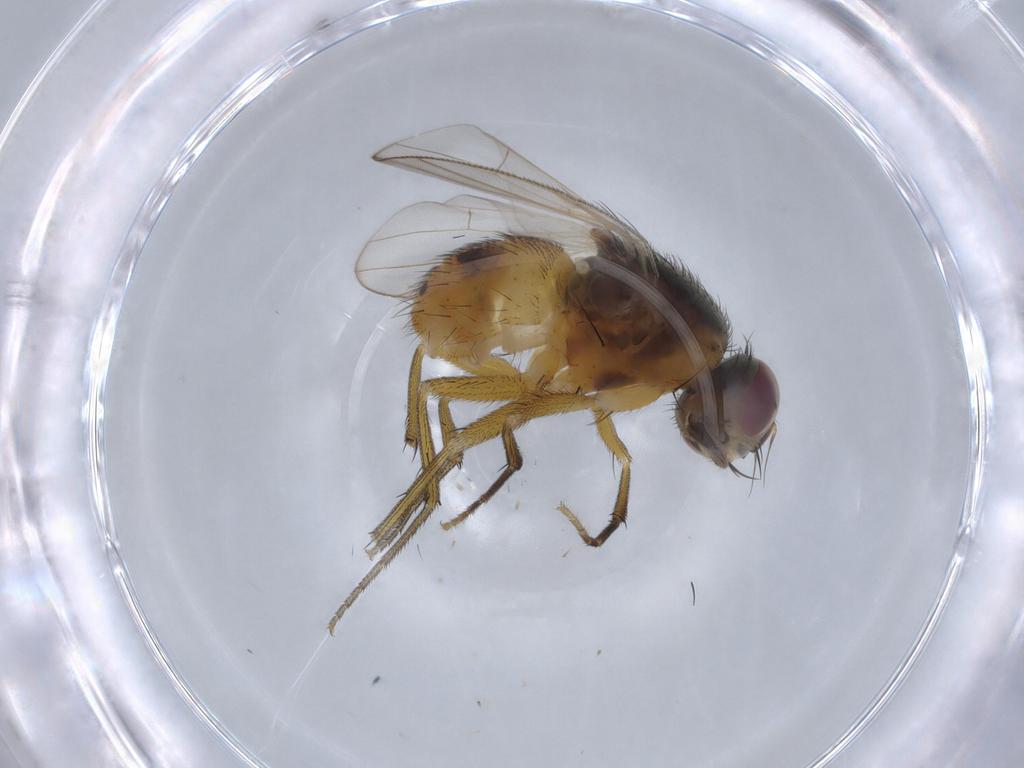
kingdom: Animalia
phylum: Arthropoda
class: Insecta
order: Diptera
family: Muscidae
